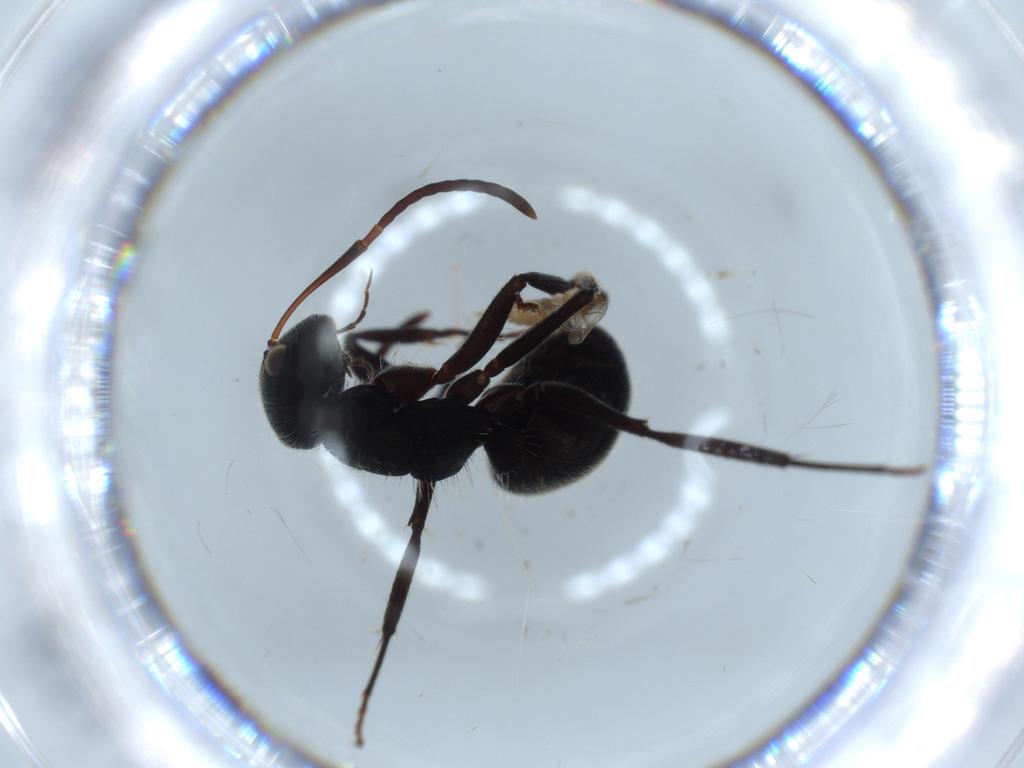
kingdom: Animalia
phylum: Arthropoda
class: Insecta
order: Hymenoptera
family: Formicidae
